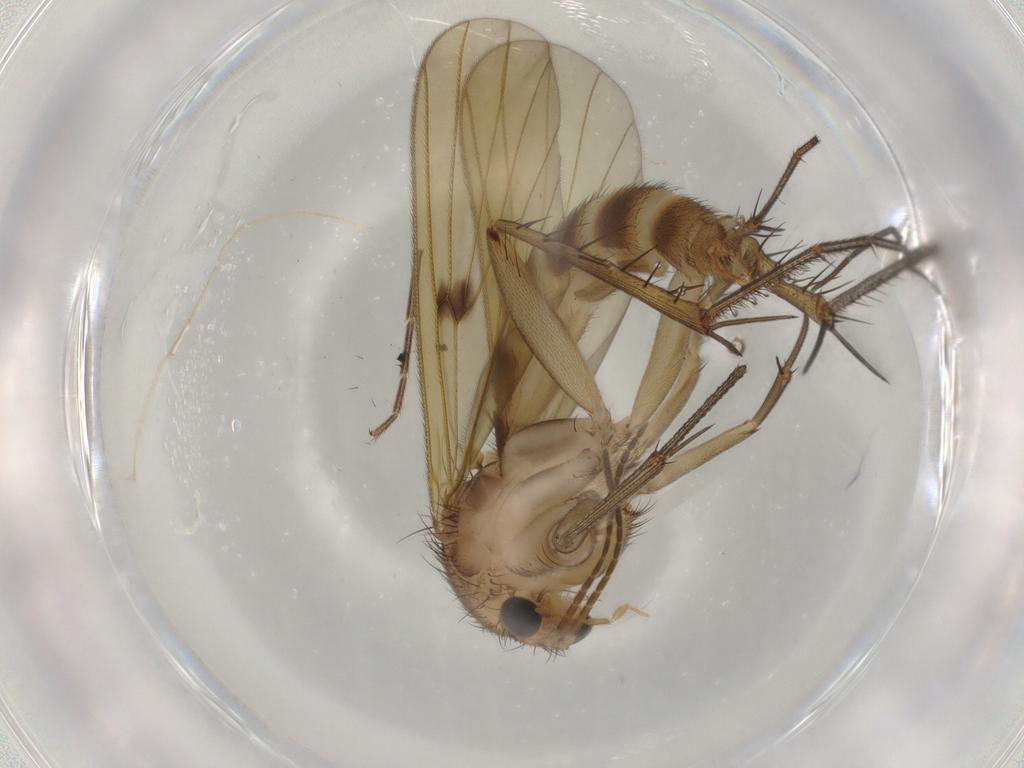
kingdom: Animalia
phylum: Arthropoda
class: Insecta
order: Diptera
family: Mycetophilidae
